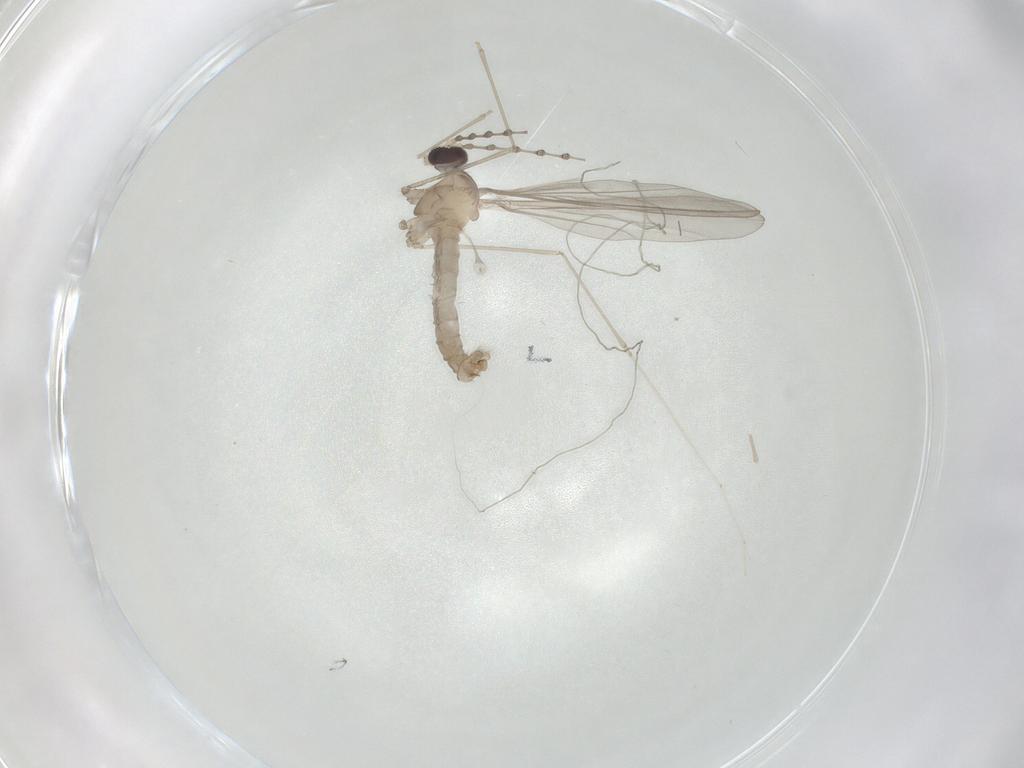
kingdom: Animalia
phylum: Arthropoda
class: Insecta
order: Diptera
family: Cecidomyiidae
